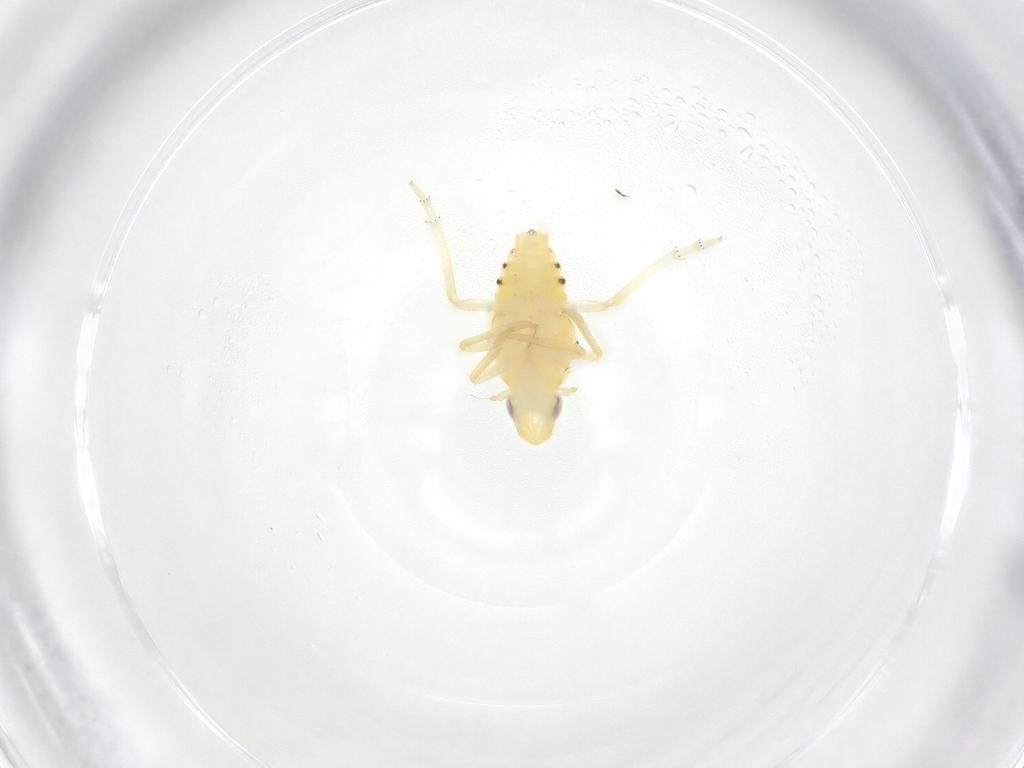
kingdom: Animalia
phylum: Arthropoda
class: Insecta
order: Hemiptera
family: Tropiduchidae
